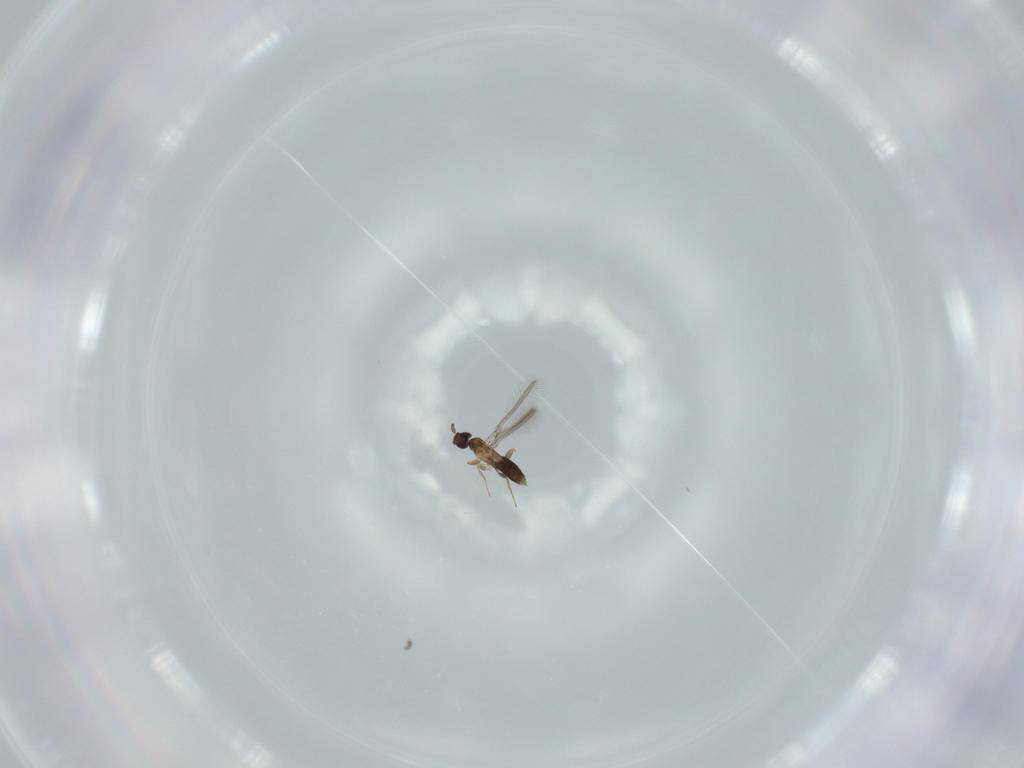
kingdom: Animalia
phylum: Arthropoda
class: Insecta
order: Hymenoptera
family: Mymaridae
